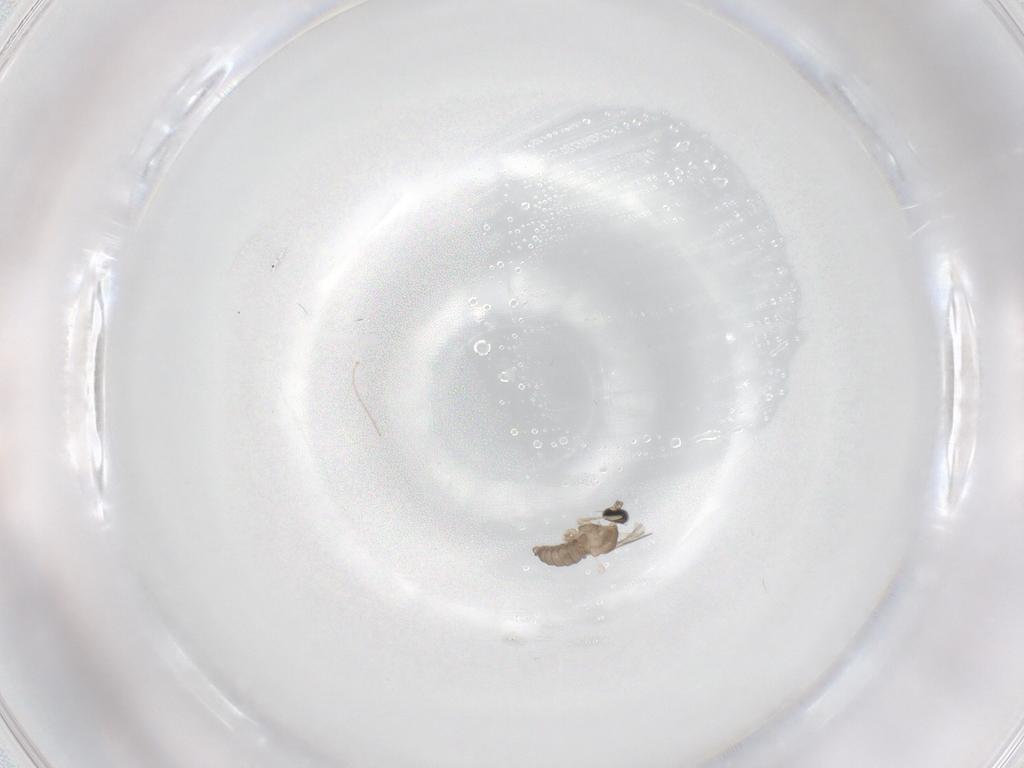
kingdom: Animalia
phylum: Arthropoda
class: Insecta
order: Diptera
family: Cecidomyiidae
